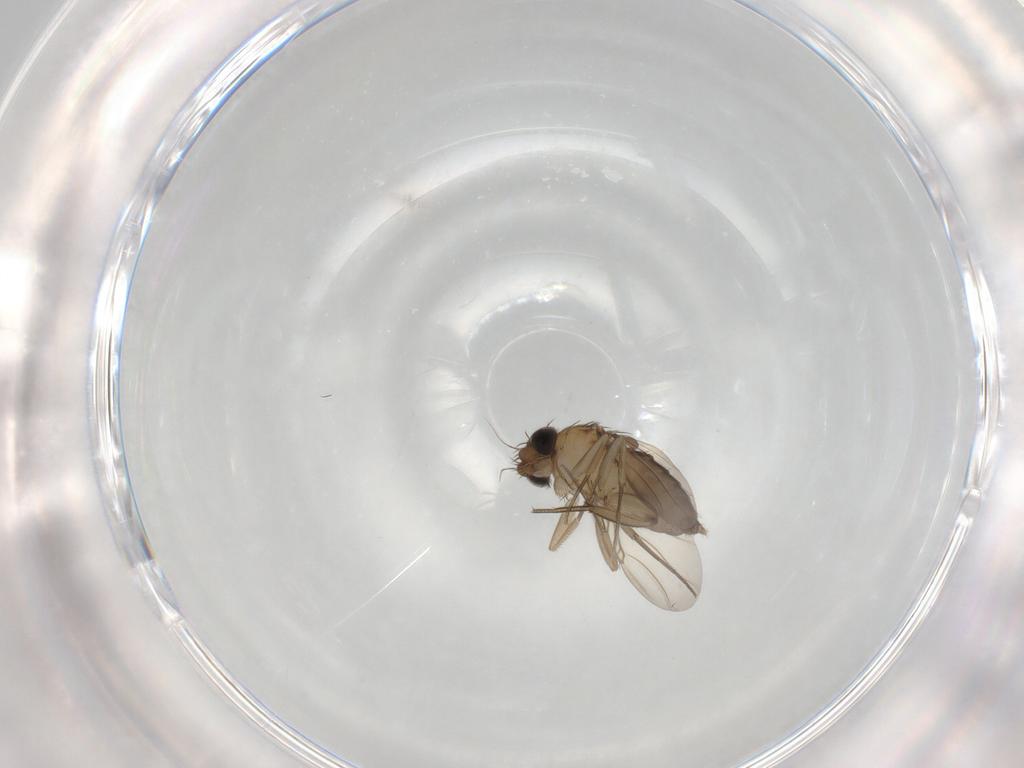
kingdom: Animalia
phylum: Arthropoda
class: Insecta
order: Diptera
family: Phoridae
